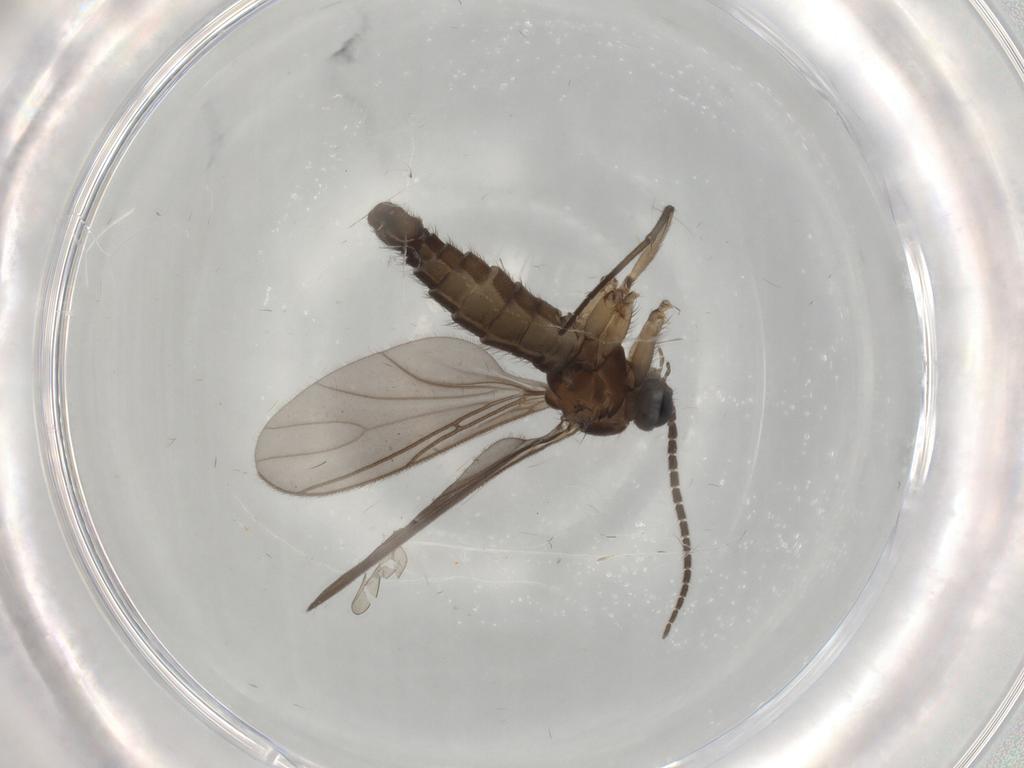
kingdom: Animalia
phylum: Arthropoda
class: Insecta
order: Diptera
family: Sciaridae
